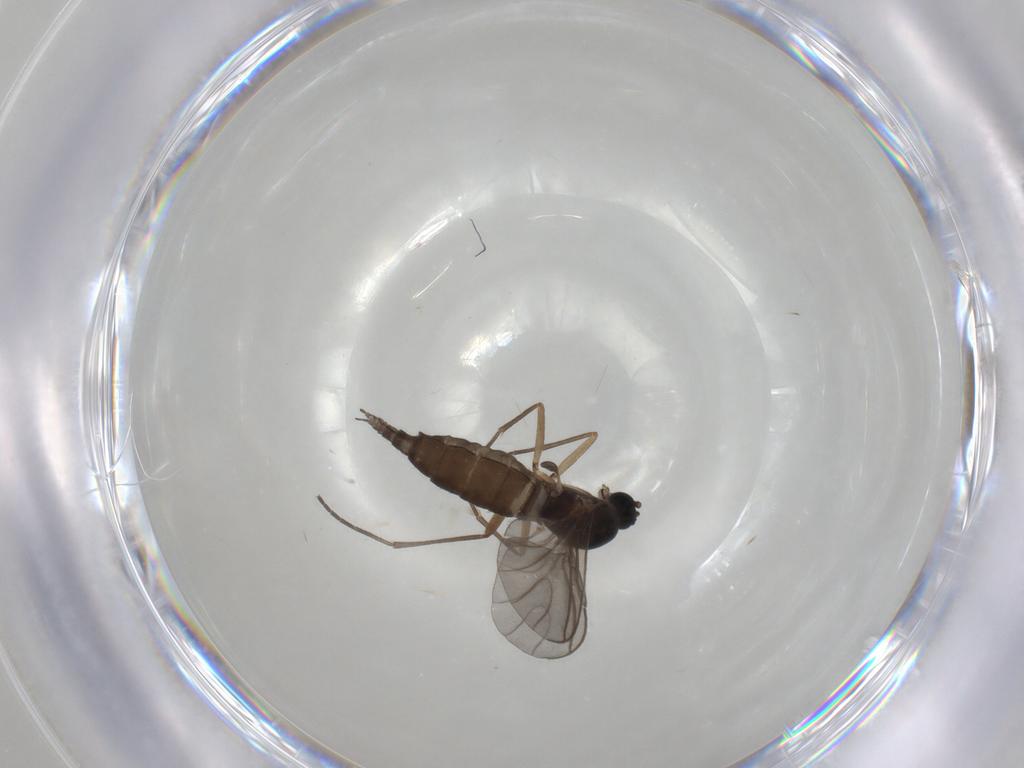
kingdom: Animalia
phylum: Arthropoda
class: Insecta
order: Diptera
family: Sciaridae
